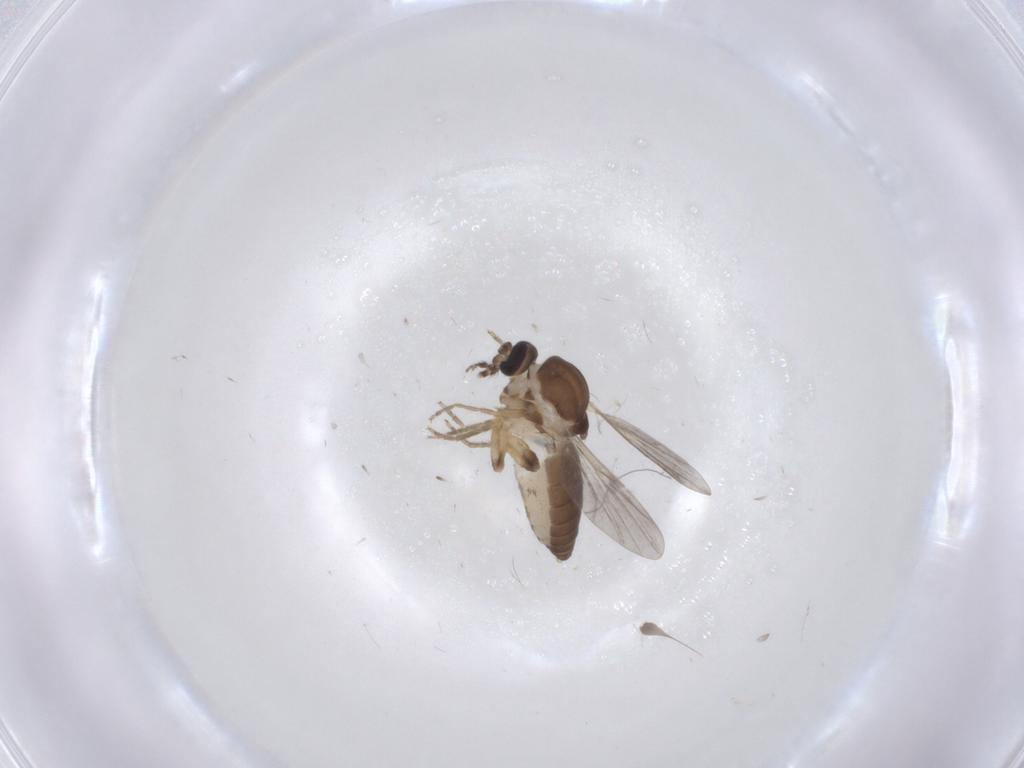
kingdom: Animalia
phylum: Arthropoda
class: Insecta
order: Diptera
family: Ceratopogonidae
